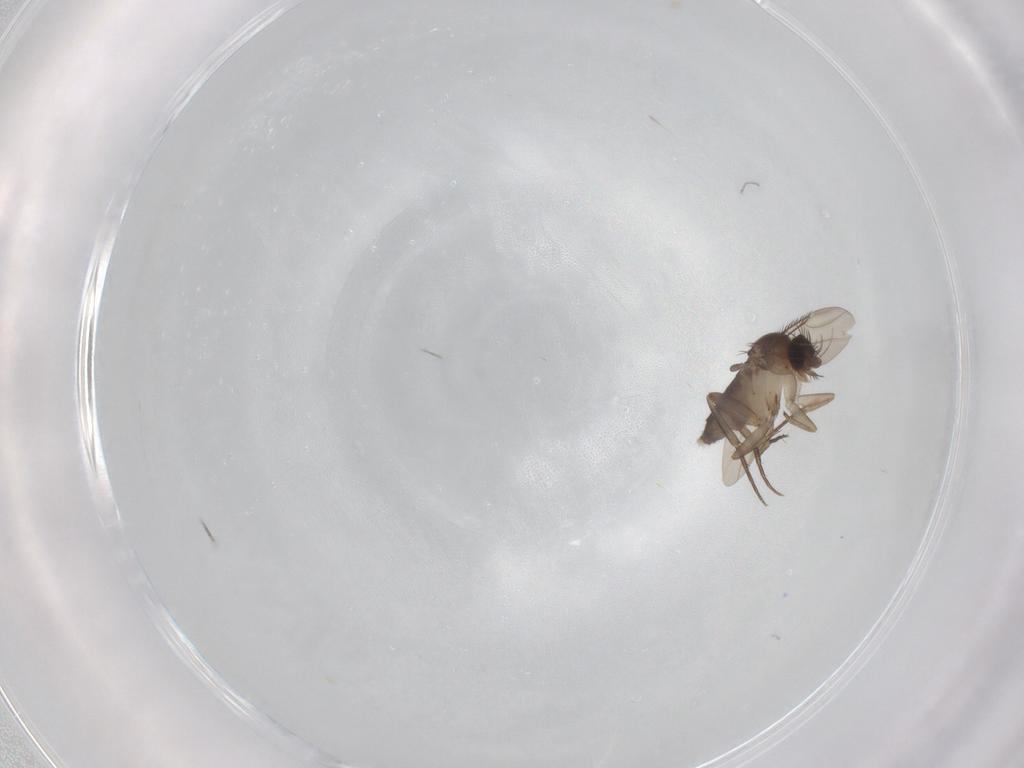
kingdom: Animalia
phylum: Arthropoda
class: Insecta
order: Diptera
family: Phoridae
